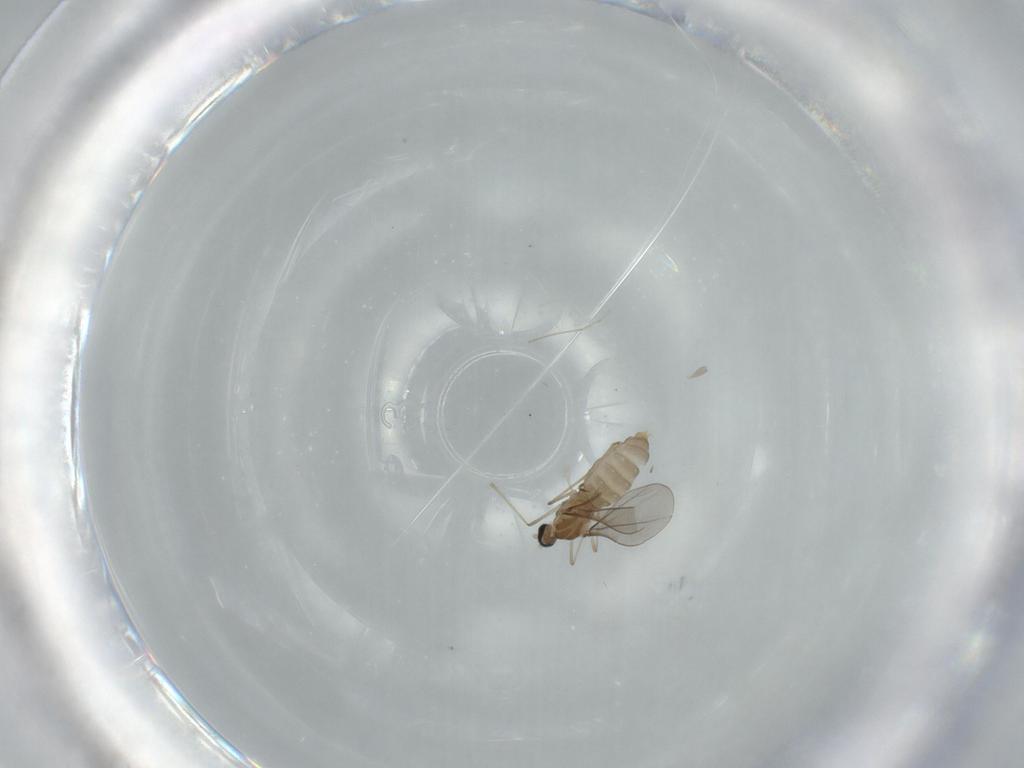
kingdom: Animalia
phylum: Arthropoda
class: Insecta
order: Diptera
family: Cecidomyiidae
